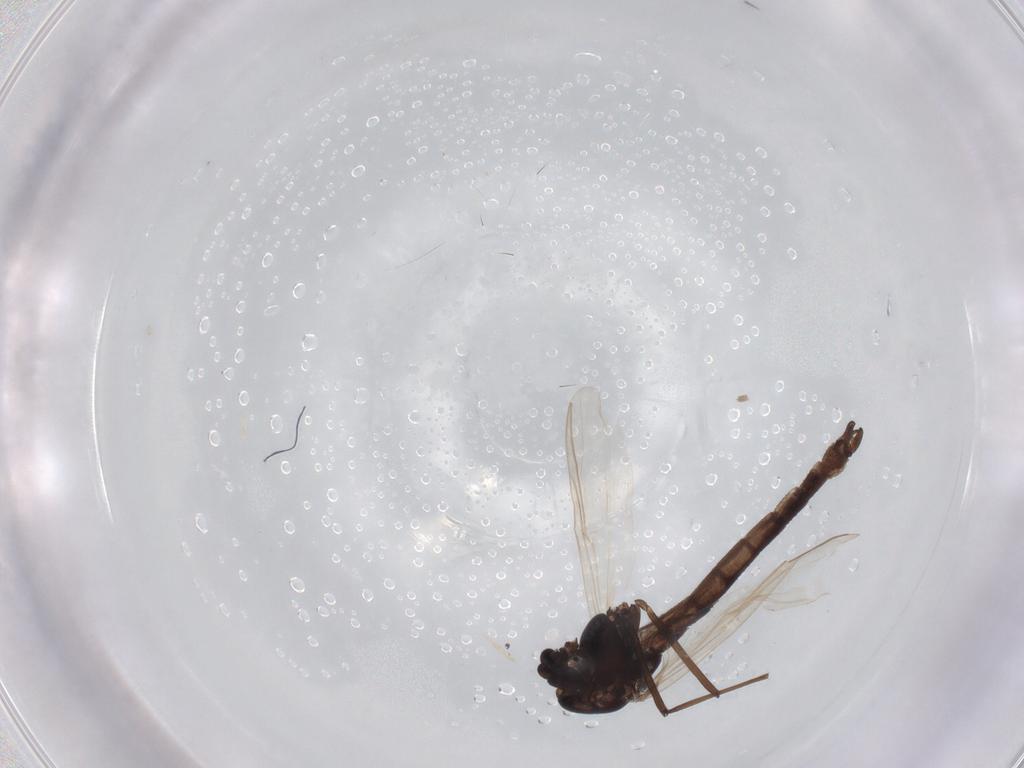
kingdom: Animalia
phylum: Arthropoda
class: Insecta
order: Diptera
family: Chironomidae
